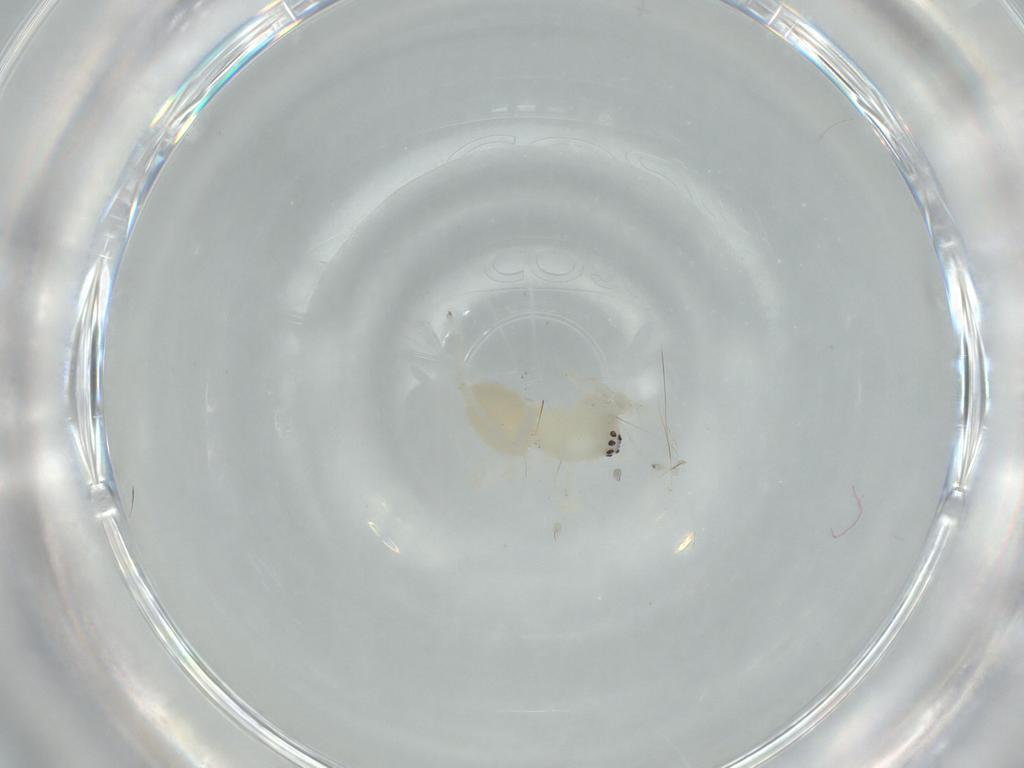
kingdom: Animalia
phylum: Arthropoda
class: Arachnida
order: Araneae
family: Anyphaenidae
